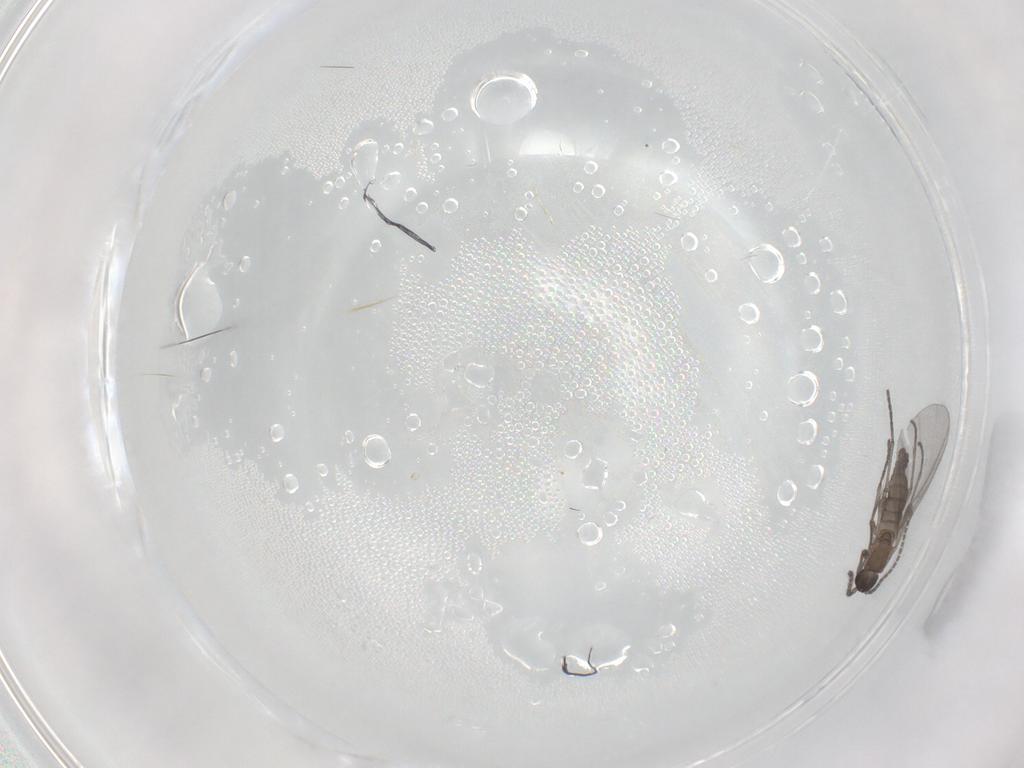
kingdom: Animalia
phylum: Arthropoda
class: Insecta
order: Diptera
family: Sciaridae
